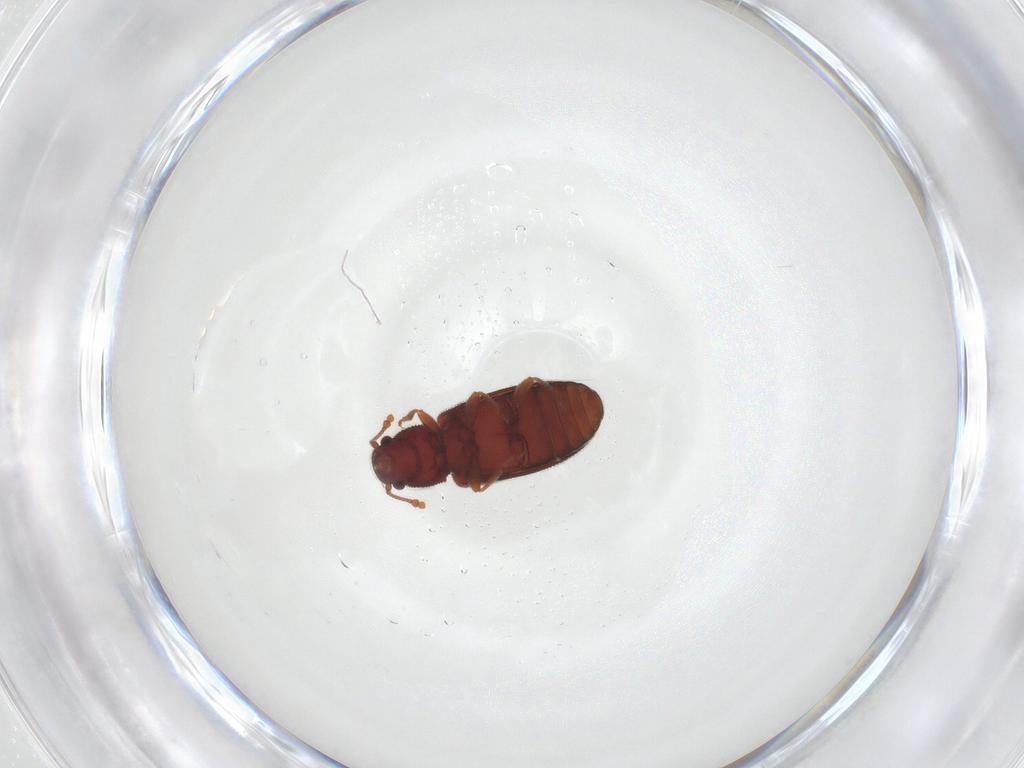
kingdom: Animalia
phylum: Arthropoda
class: Insecta
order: Coleoptera
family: Mycetophagidae
